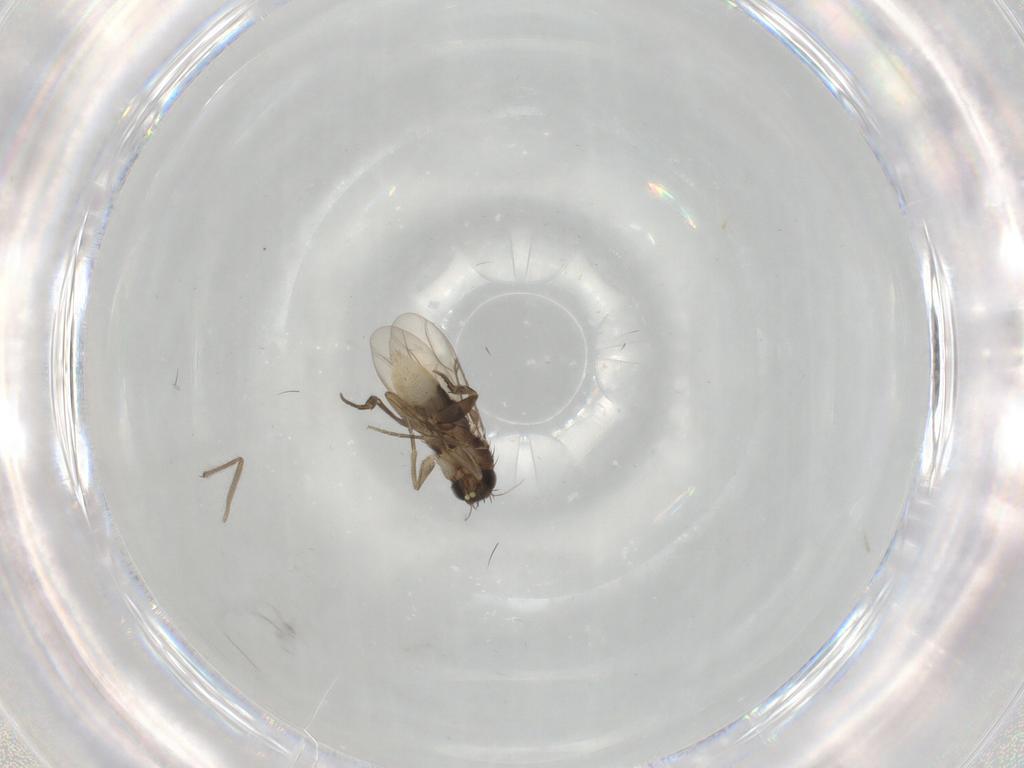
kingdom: Animalia
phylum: Arthropoda
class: Insecta
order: Diptera
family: Phoridae
